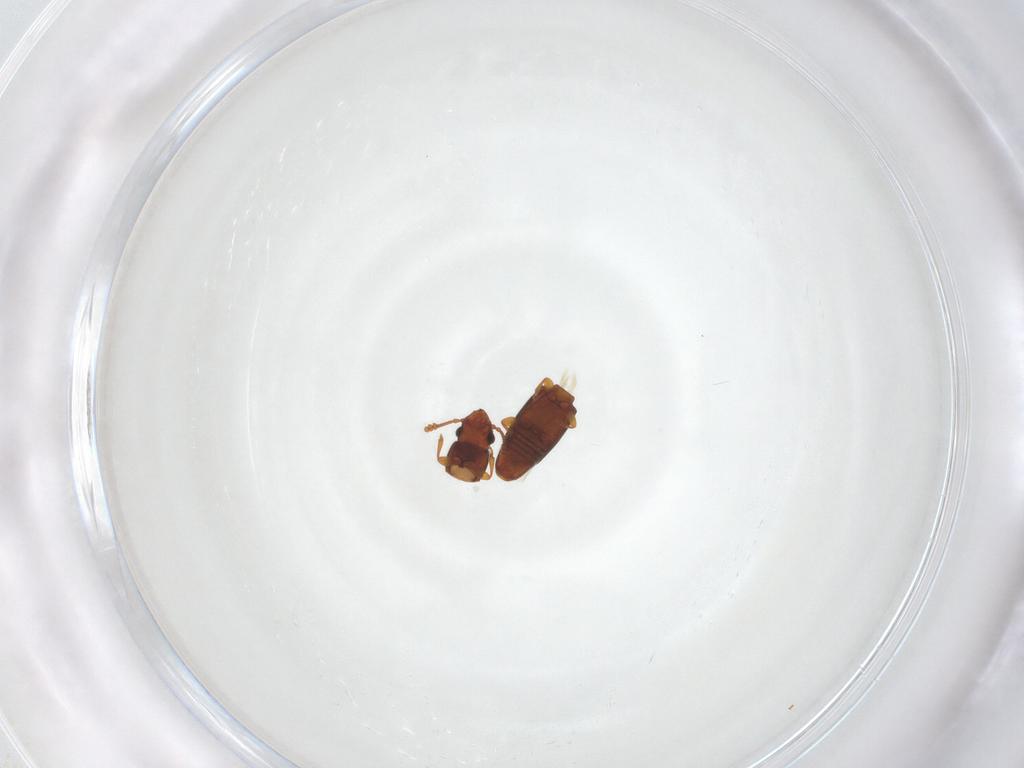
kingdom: Animalia
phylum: Arthropoda
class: Insecta
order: Coleoptera
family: Smicripidae
